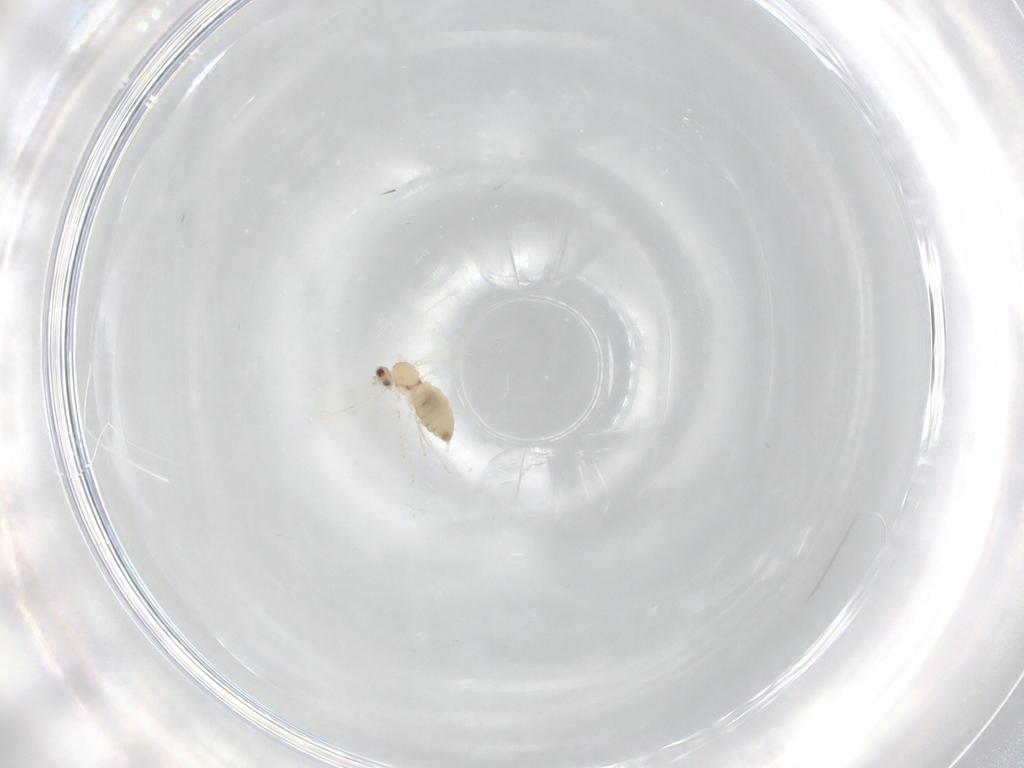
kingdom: Animalia
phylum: Arthropoda
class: Insecta
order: Diptera
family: Cecidomyiidae
